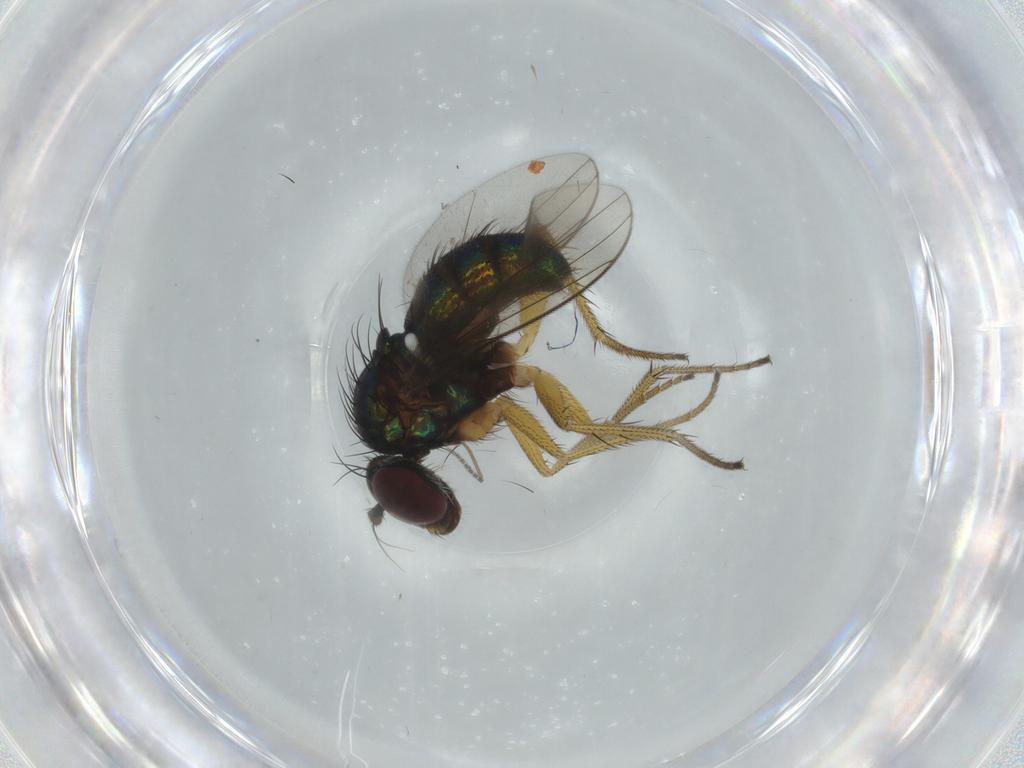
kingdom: Animalia
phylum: Arthropoda
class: Insecta
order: Diptera
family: Dolichopodidae
